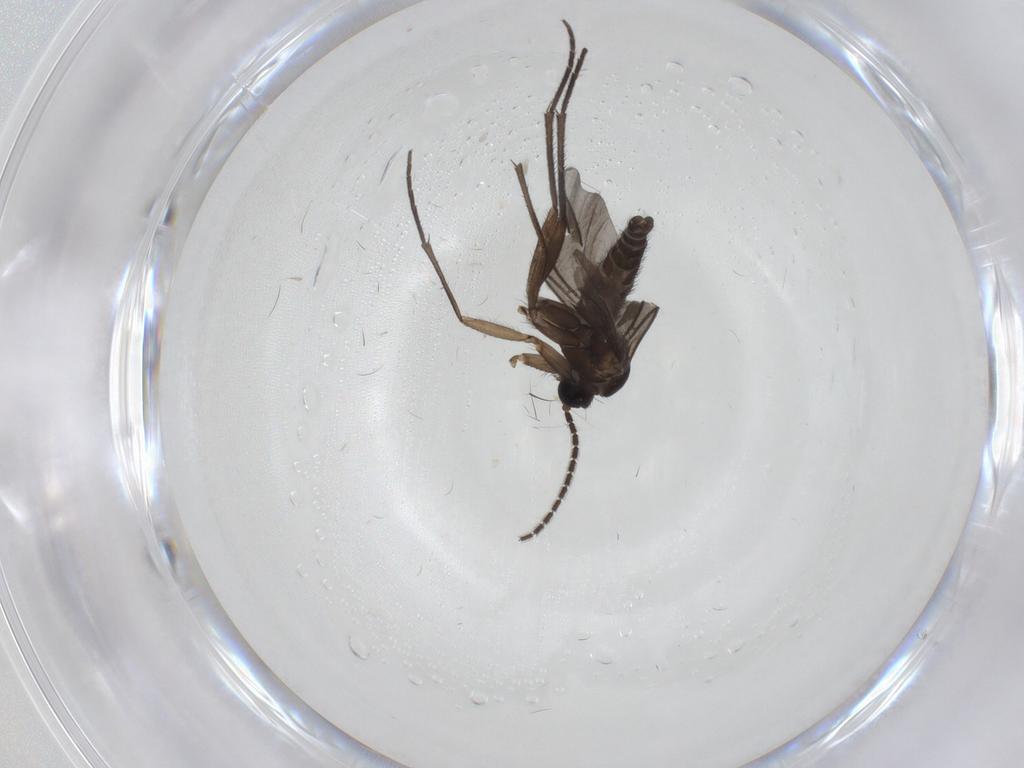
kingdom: Animalia
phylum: Arthropoda
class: Insecta
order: Diptera
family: Sciaridae
